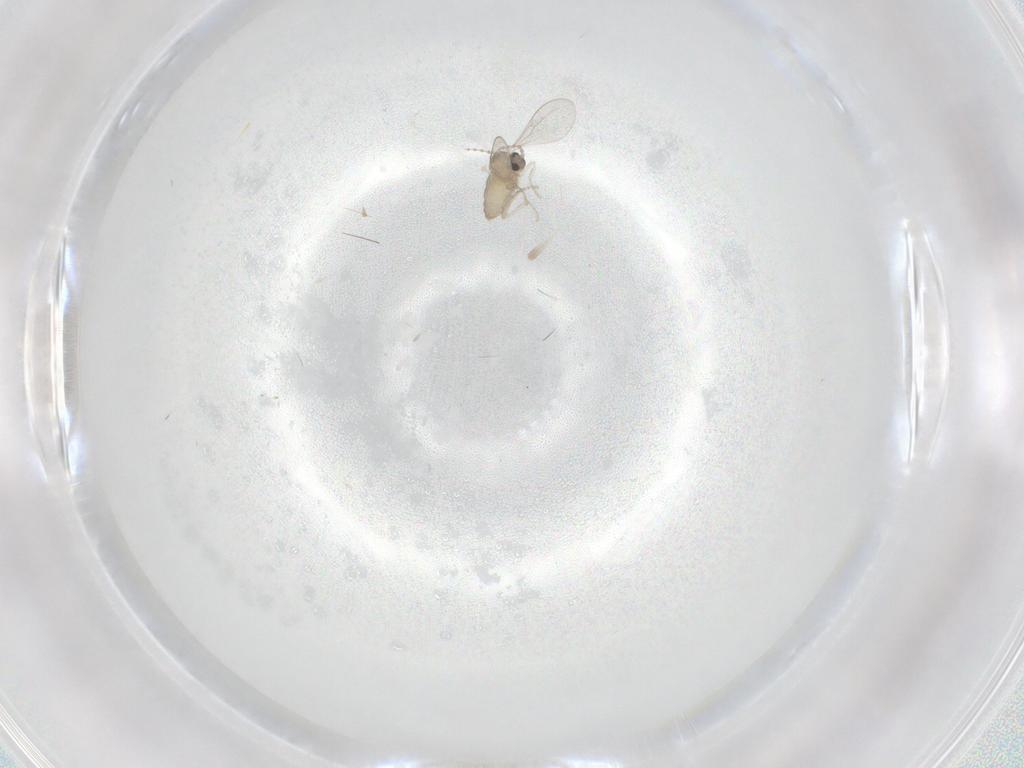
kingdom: Animalia
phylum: Arthropoda
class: Insecta
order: Diptera
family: Cecidomyiidae
